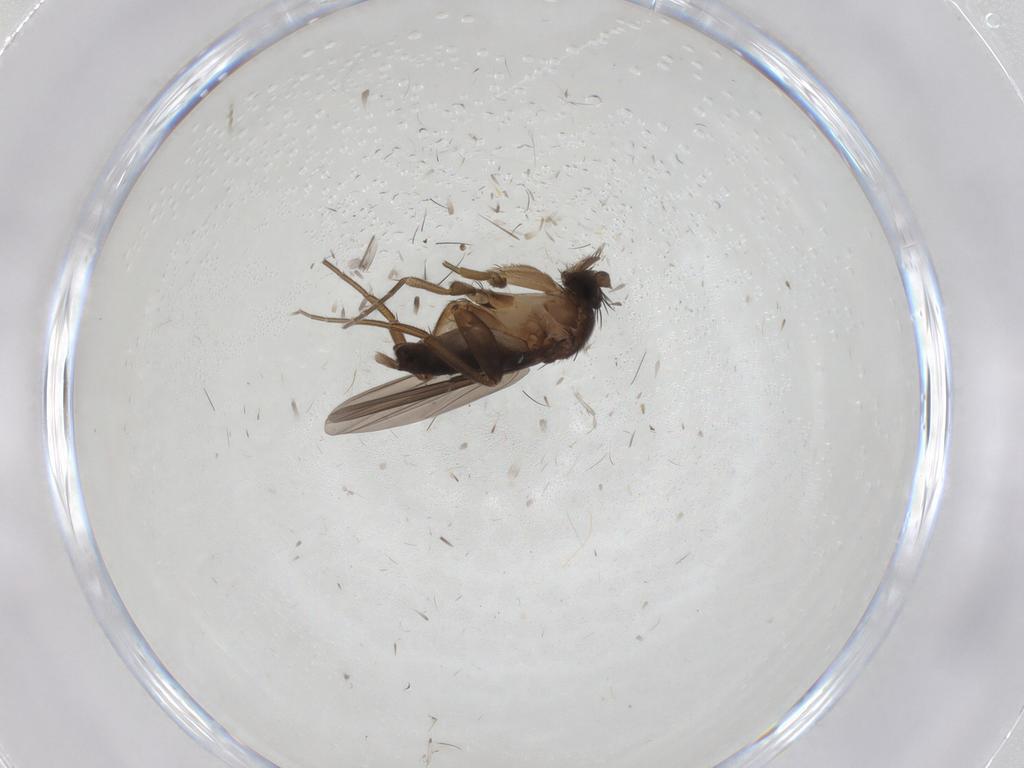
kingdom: Animalia
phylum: Arthropoda
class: Insecta
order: Diptera
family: Phoridae
